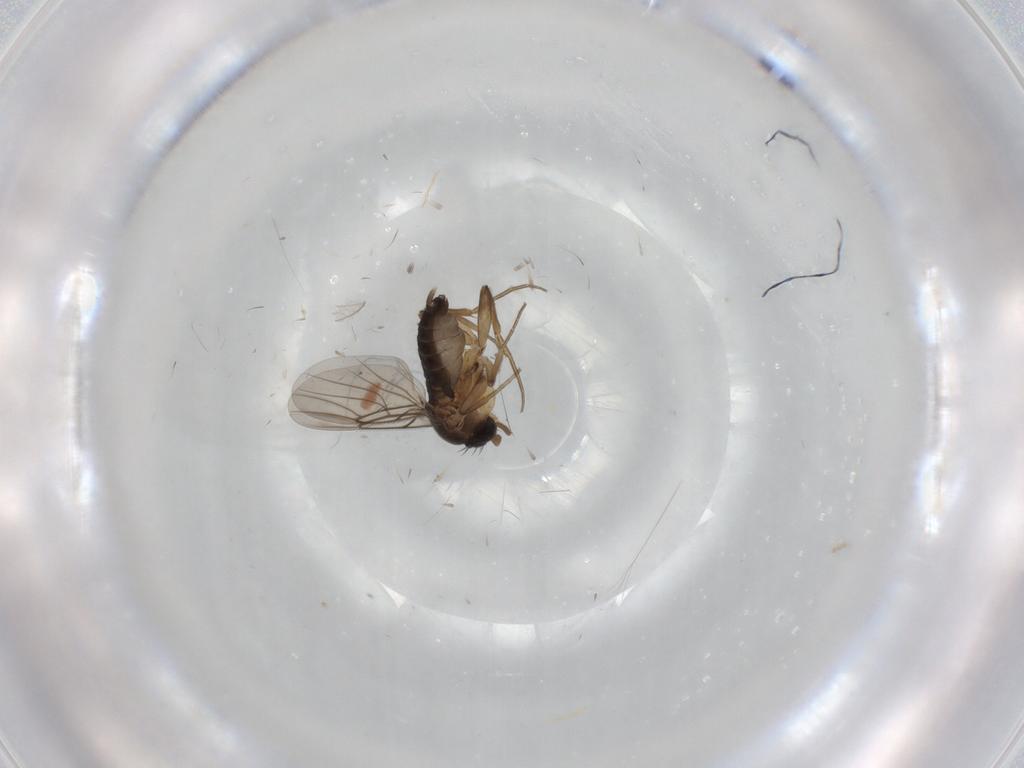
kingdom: Animalia
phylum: Arthropoda
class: Insecta
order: Diptera
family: Phoridae
